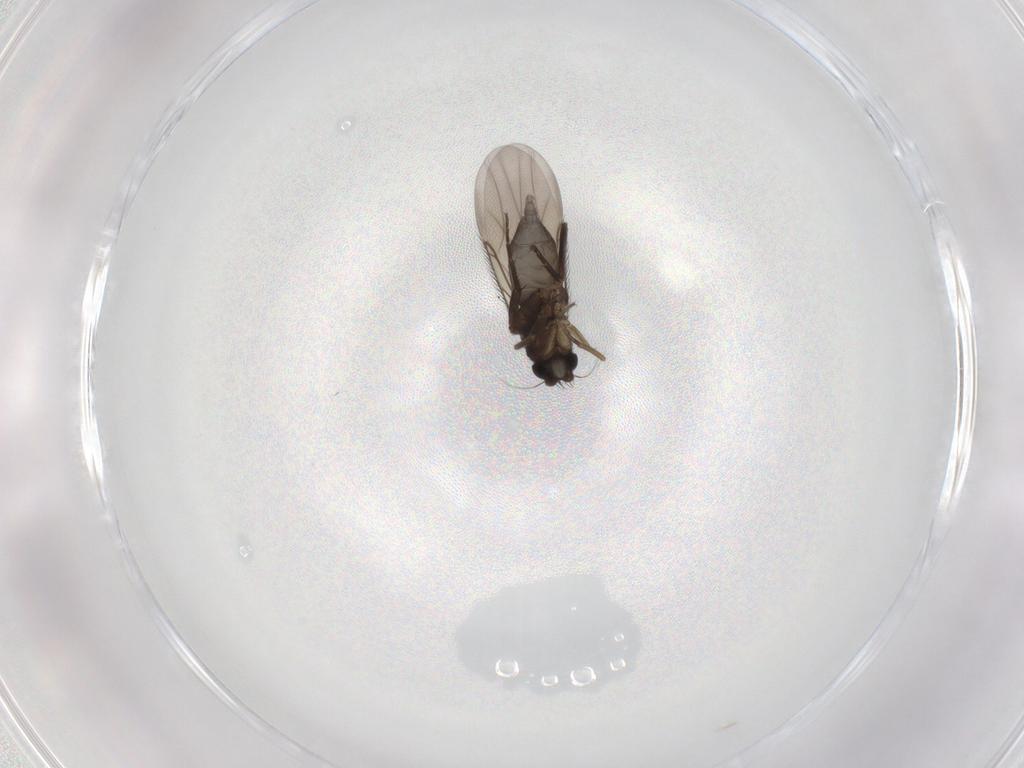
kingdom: Animalia
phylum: Arthropoda
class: Insecta
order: Diptera
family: Phoridae
